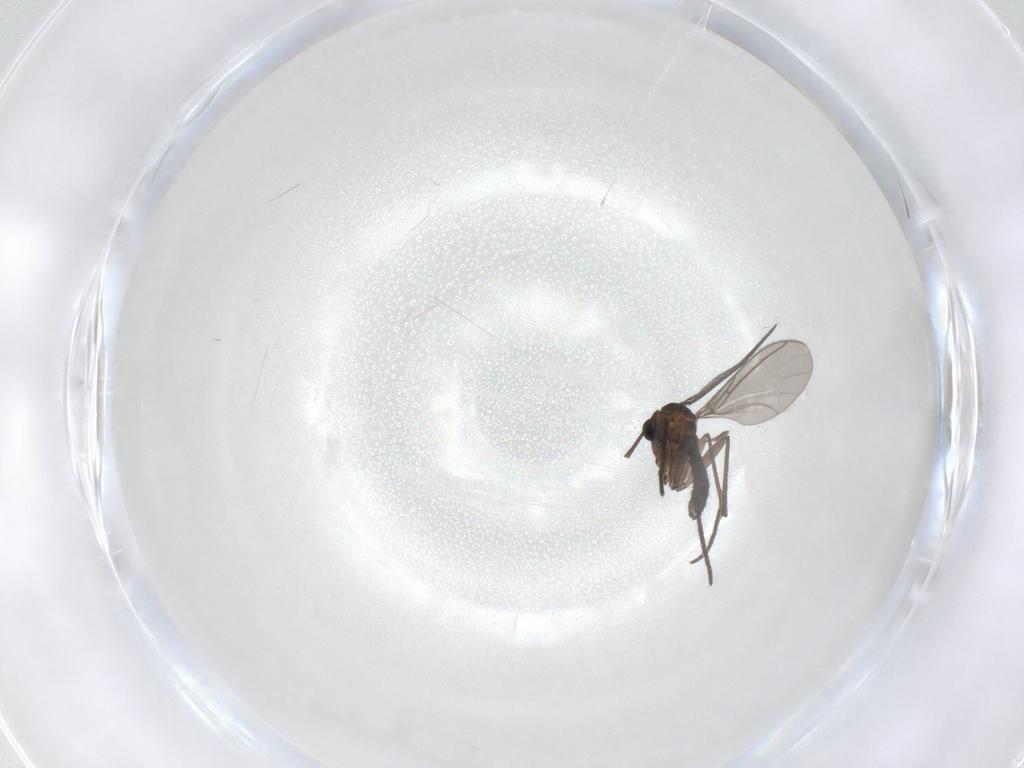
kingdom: Animalia
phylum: Arthropoda
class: Insecta
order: Diptera
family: Sciaridae
